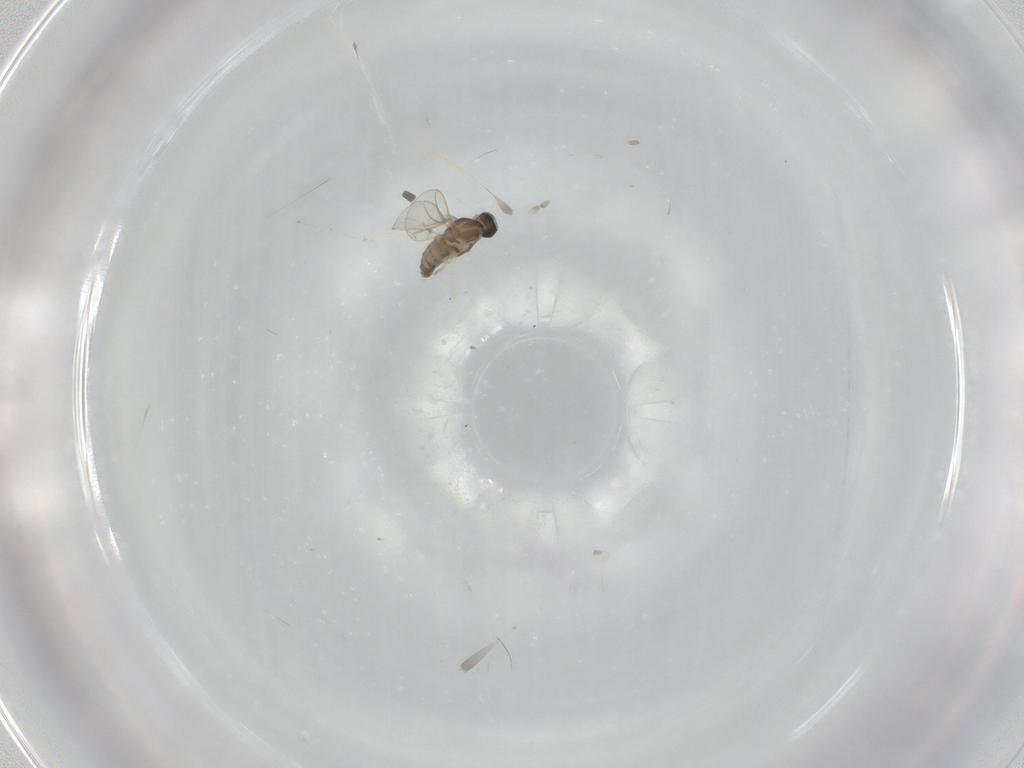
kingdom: Animalia
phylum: Arthropoda
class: Insecta
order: Diptera
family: Cecidomyiidae
